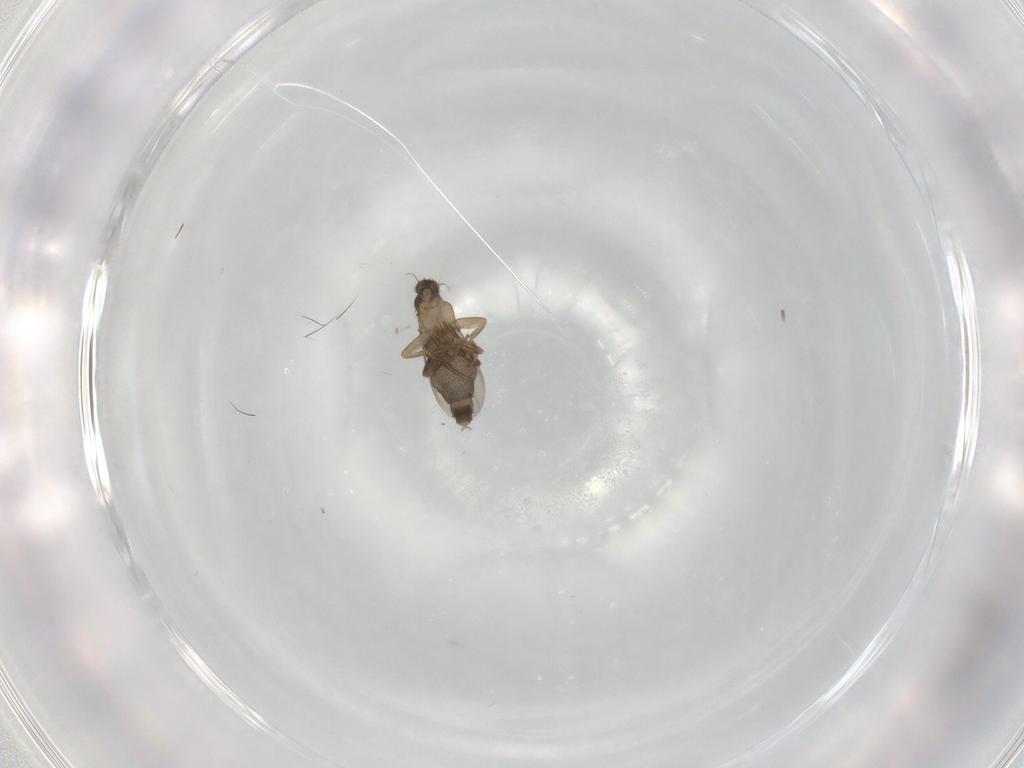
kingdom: Animalia
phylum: Arthropoda
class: Insecta
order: Diptera
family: Phoridae
